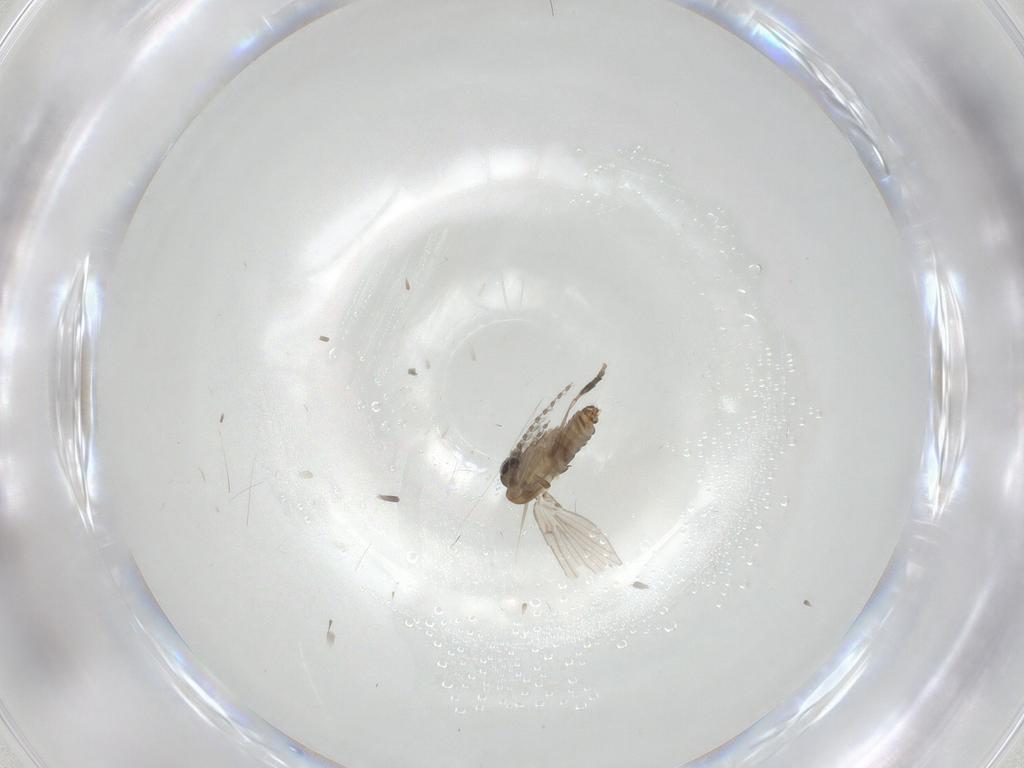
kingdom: Animalia
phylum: Arthropoda
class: Insecta
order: Diptera
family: Psychodidae
